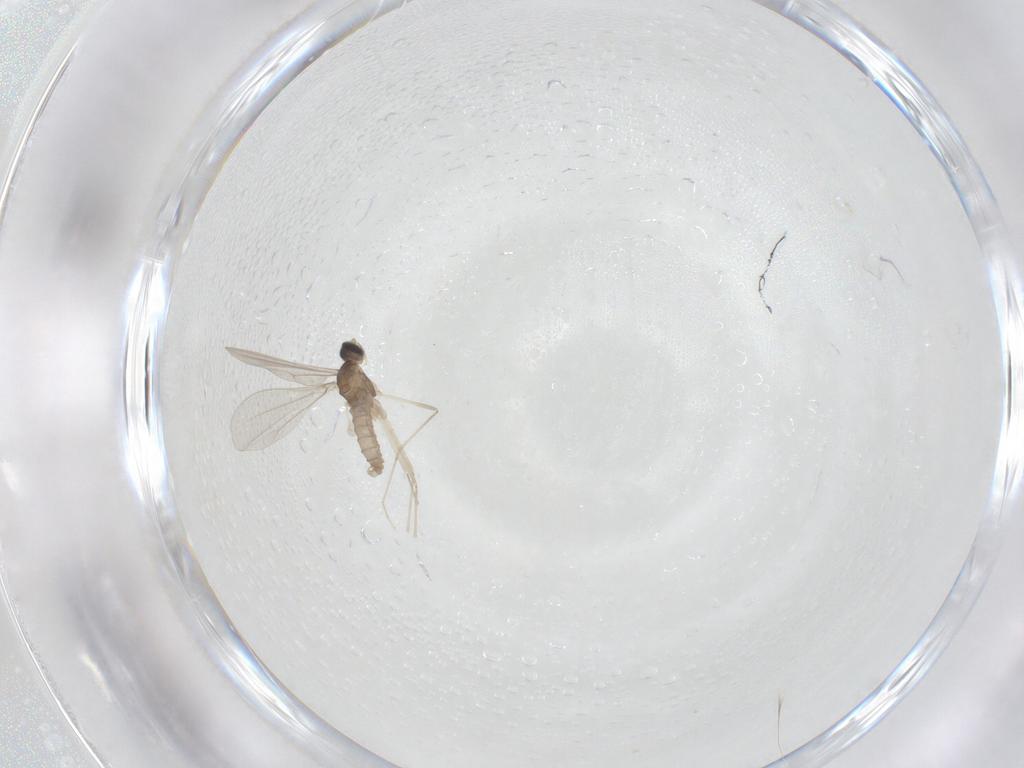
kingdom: Animalia
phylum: Arthropoda
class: Insecta
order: Diptera
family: Cecidomyiidae
